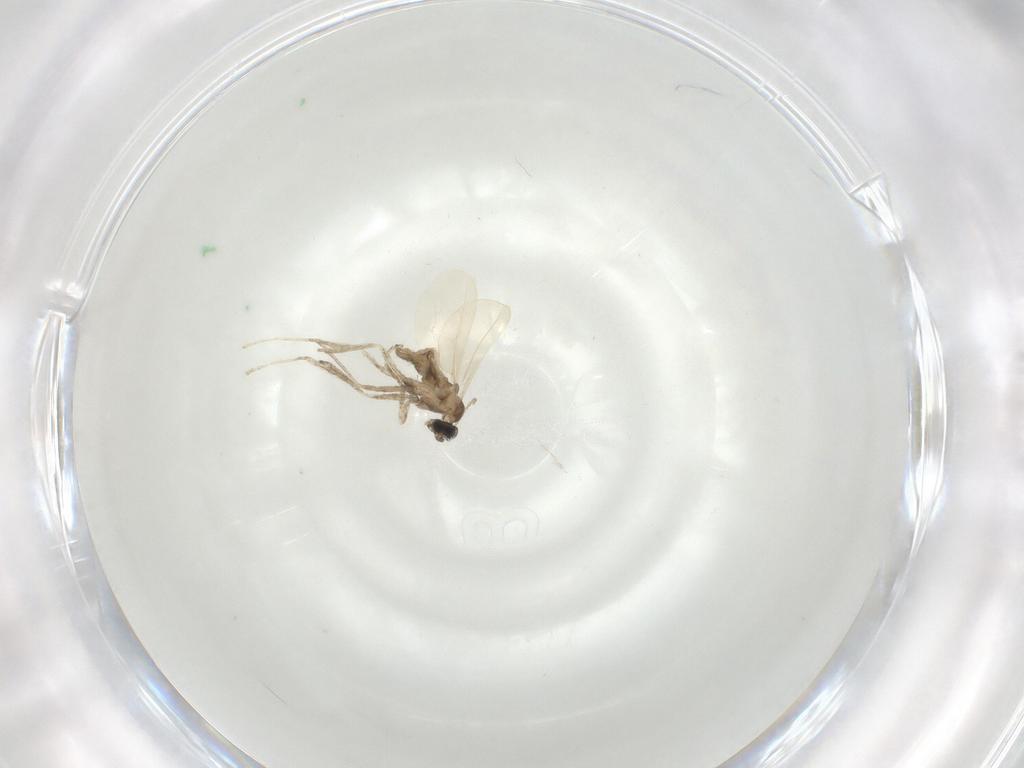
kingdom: Animalia
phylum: Arthropoda
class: Insecta
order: Diptera
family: Cecidomyiidae
